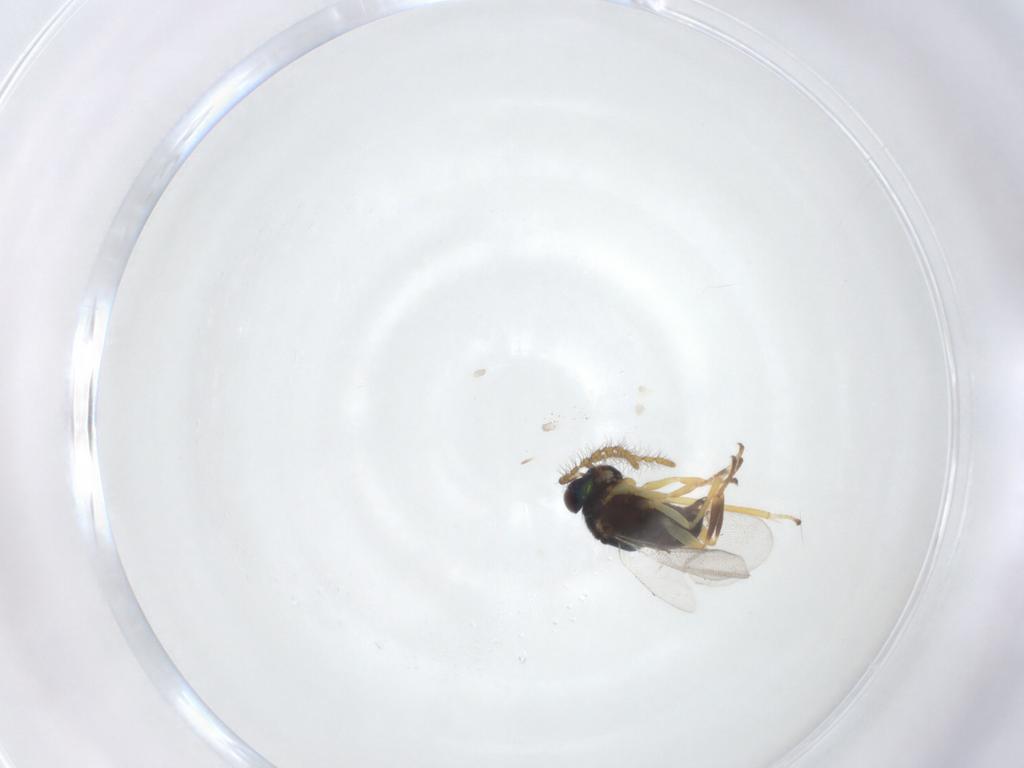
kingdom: Animalia
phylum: Arthropoda
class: Insecta
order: Hymenoptera
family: Encyrtidae
